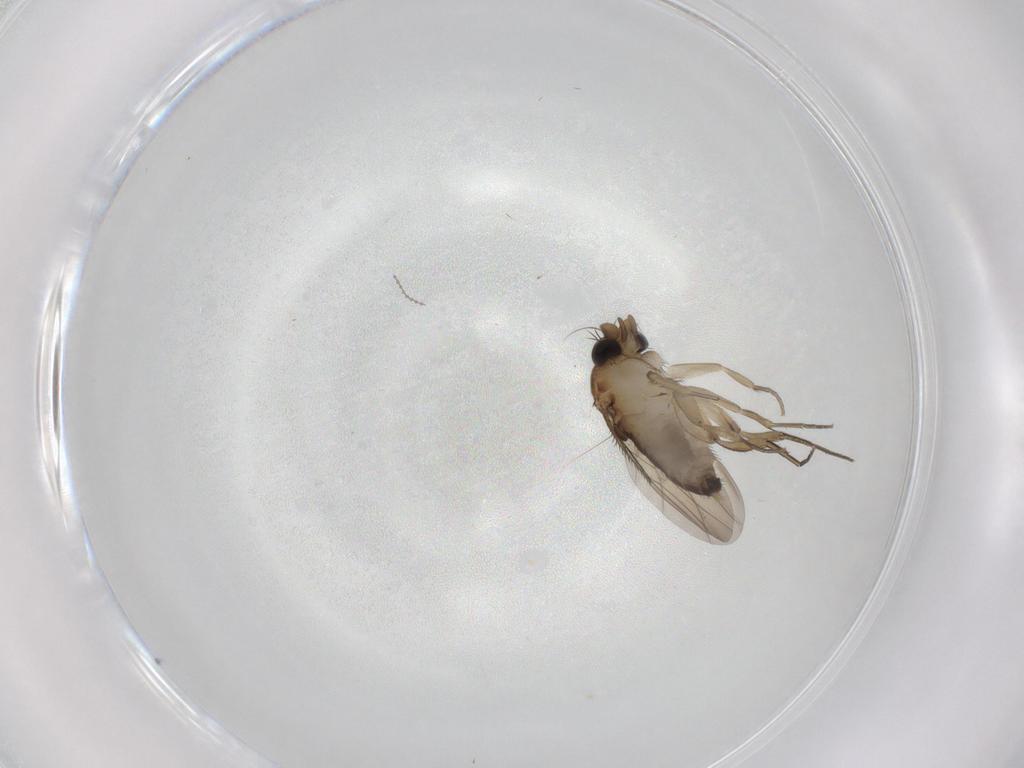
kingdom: Animalia
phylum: Arthropoda
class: Insecta
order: Diptera
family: Phoridae
